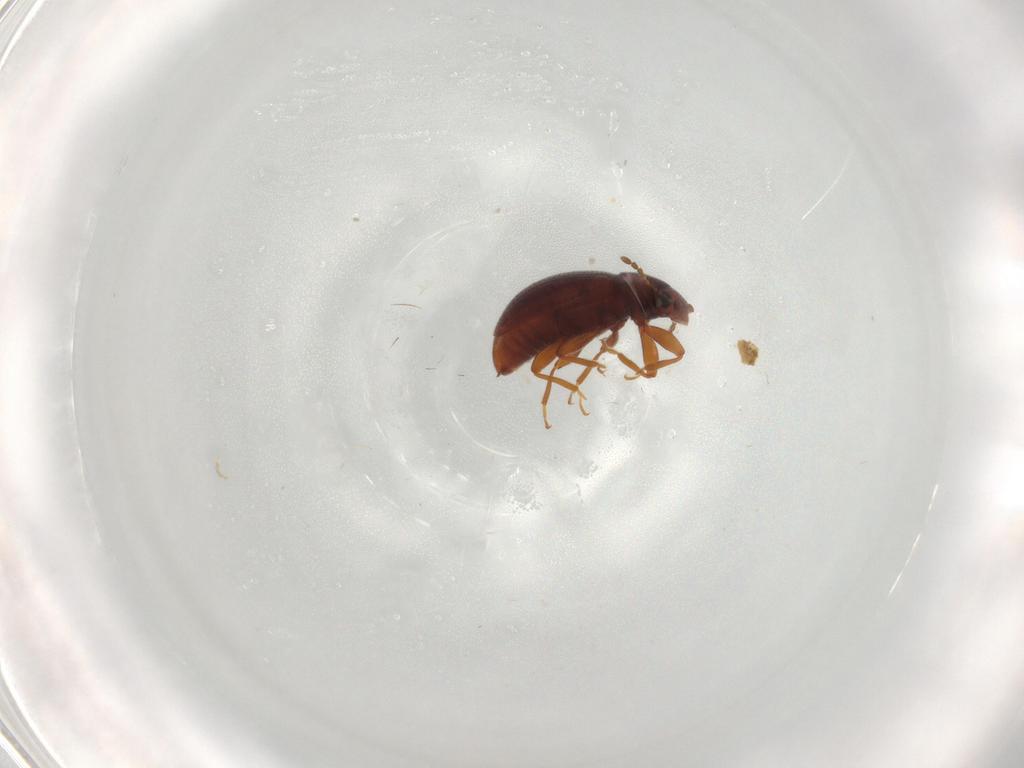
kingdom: Animalia
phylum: Arthropoda
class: Insecta
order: Coleoptera
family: Latridiidae
